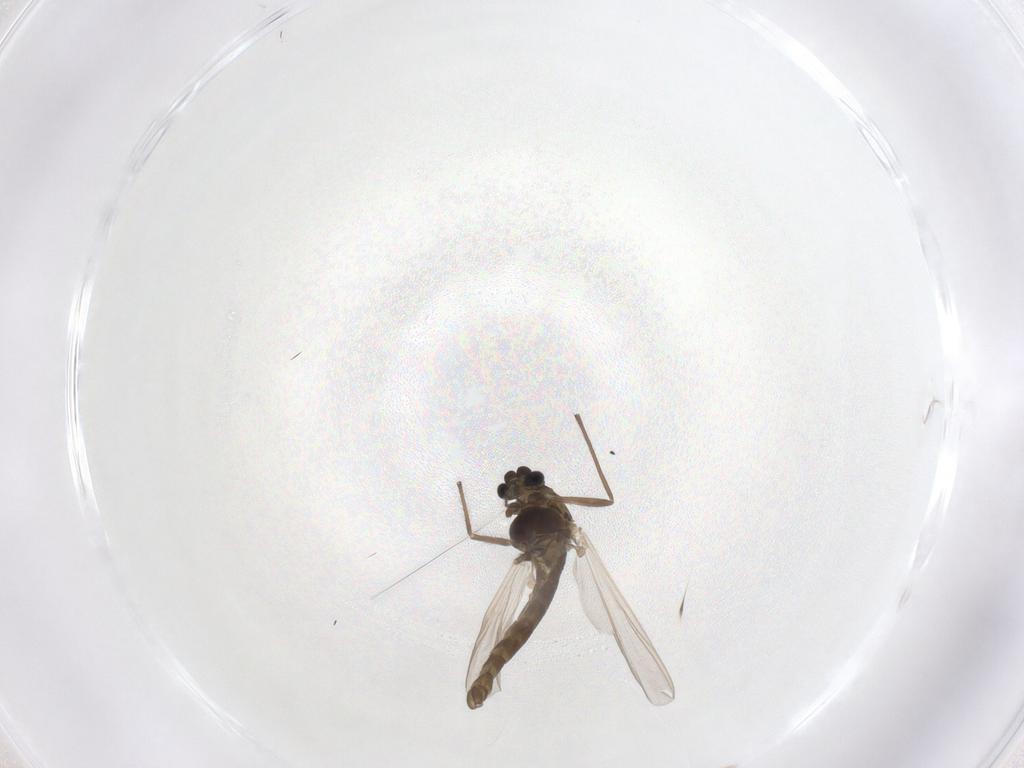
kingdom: Animalia
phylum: Arthropoda
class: Insecta
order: Diptera
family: Chironomidae
